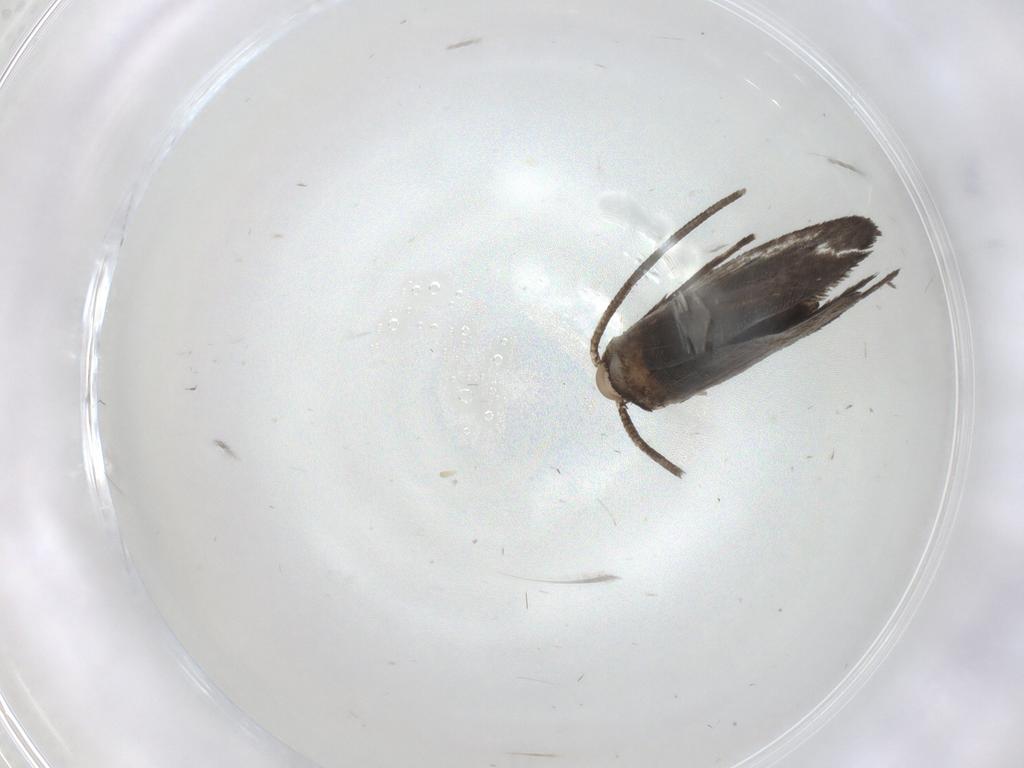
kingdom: Animalia
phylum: Arthropoda
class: Insecta
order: Lepidoptera
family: Nymphalidae
